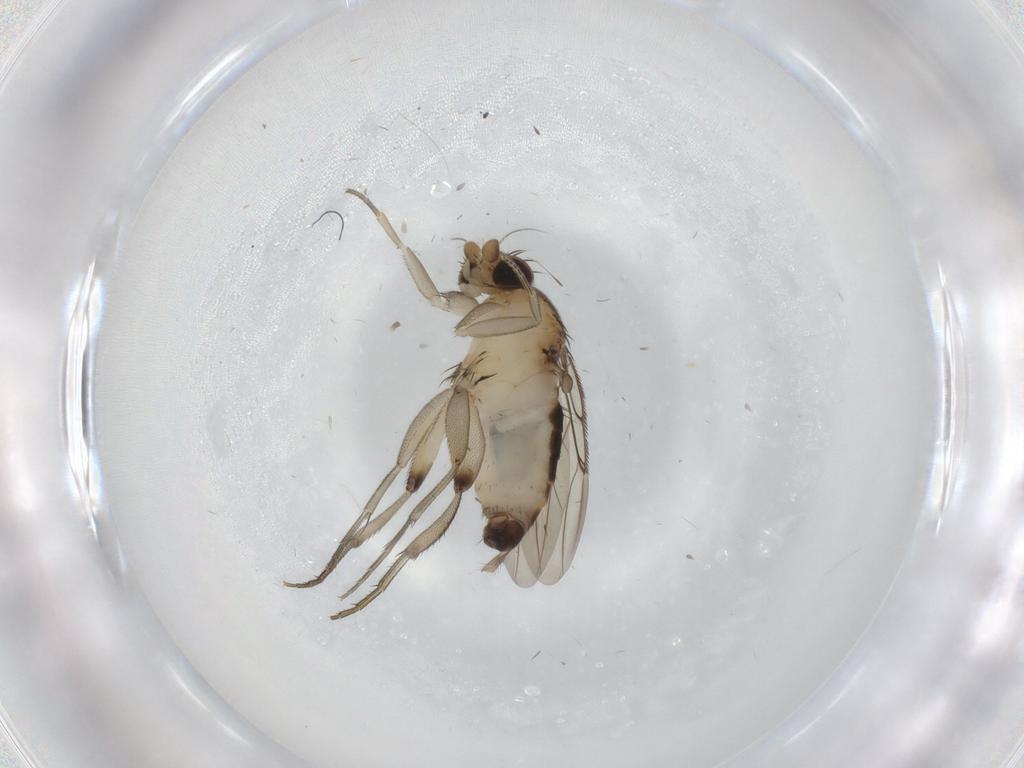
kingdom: Animalia
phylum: Arthropoda
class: Insecta
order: Diptera
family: Phoridae
